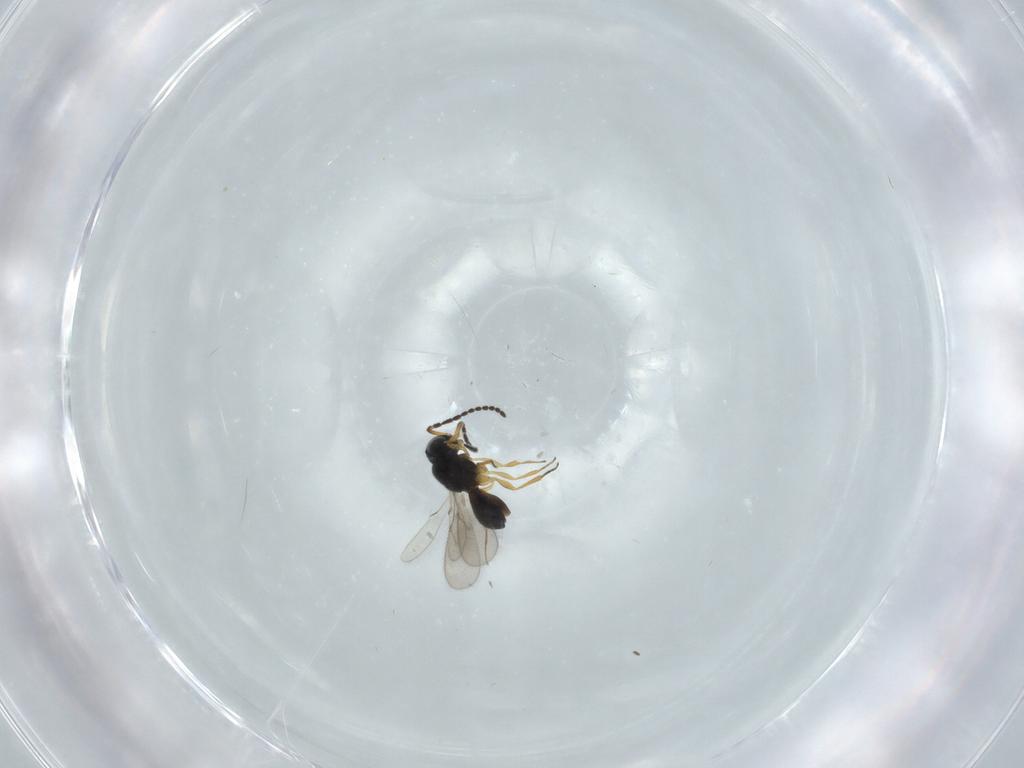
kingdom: Animalia
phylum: Arthropoda
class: Insecta
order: Hymenoptera
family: Scelionidae
